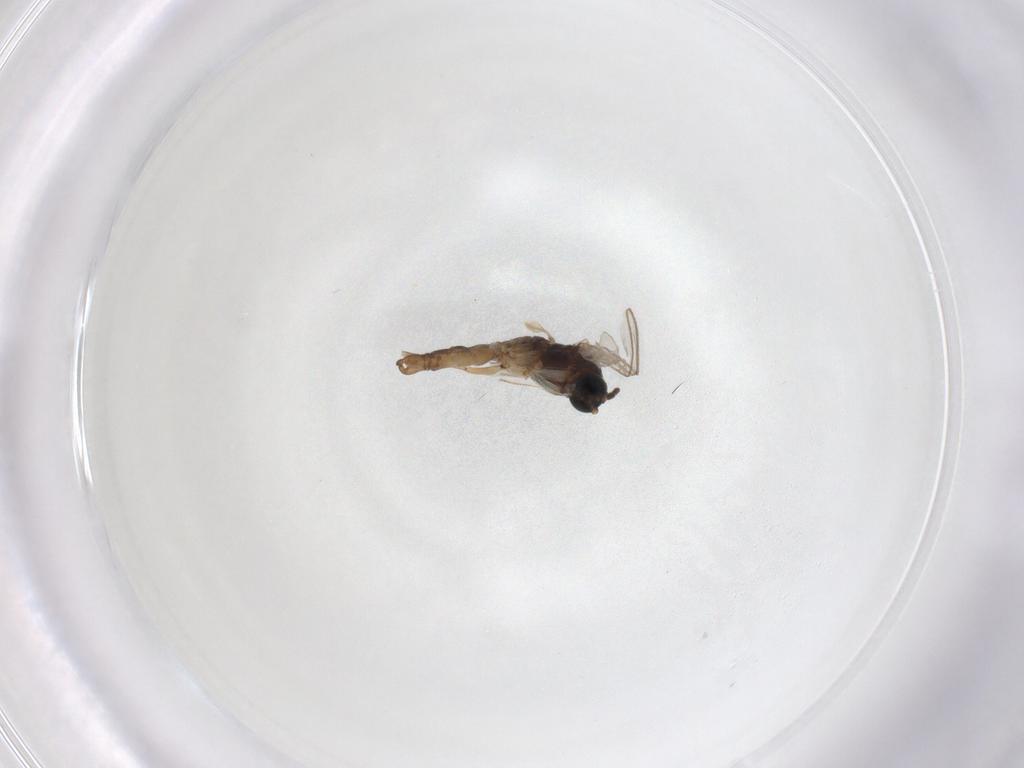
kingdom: Animalia
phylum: Arthropoda
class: Insecta
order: Diptera
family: Sciaridae
